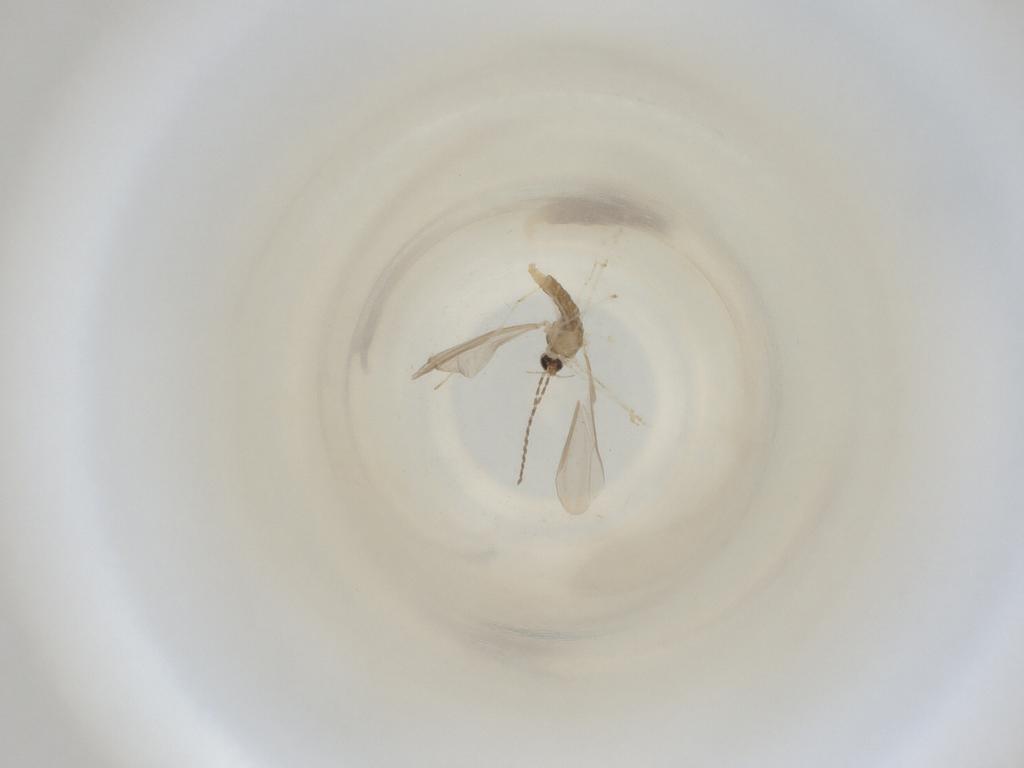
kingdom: Animalia
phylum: Arthropoda
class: Insecta
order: Diptera
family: Cecidomyiidae
